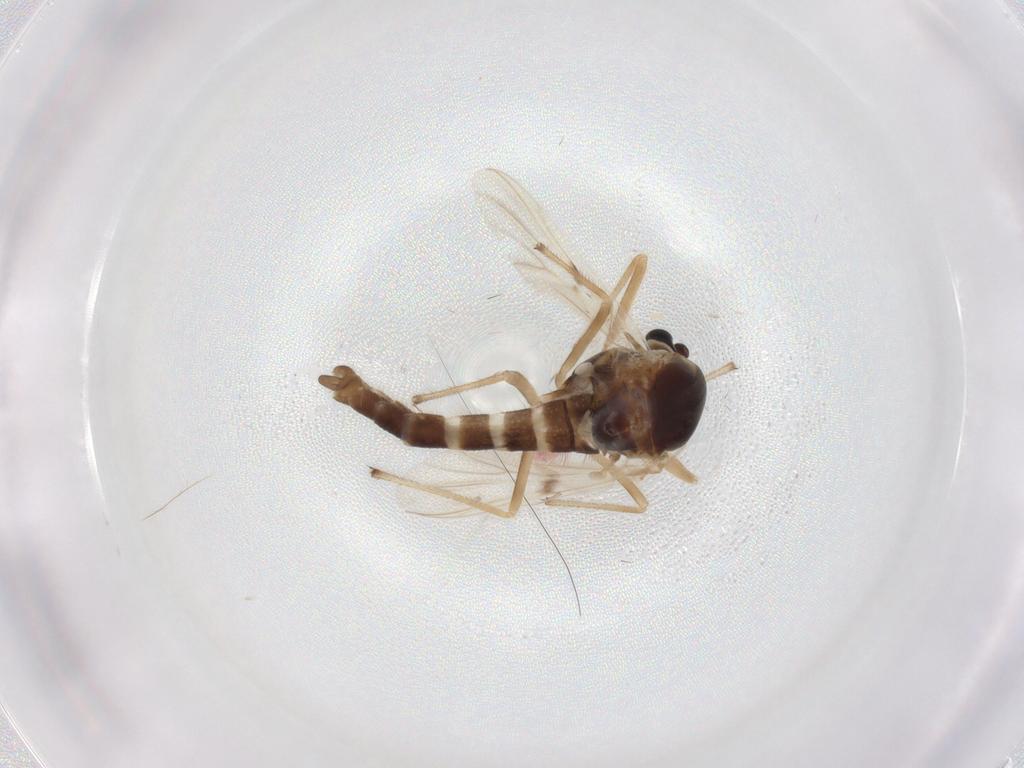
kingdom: Animalia
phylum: Arthropoda
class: Insecta
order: Diptera
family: Chironomidae
